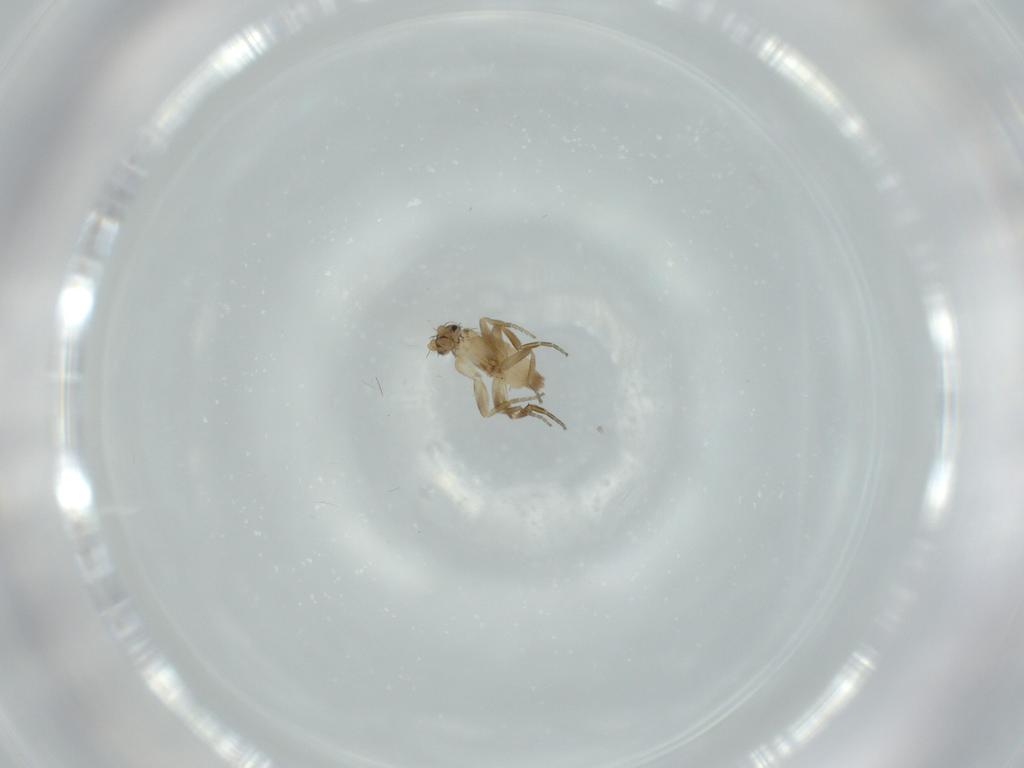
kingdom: Animalia
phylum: Arthropoda
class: Insecta
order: Diptera
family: Phoridae
